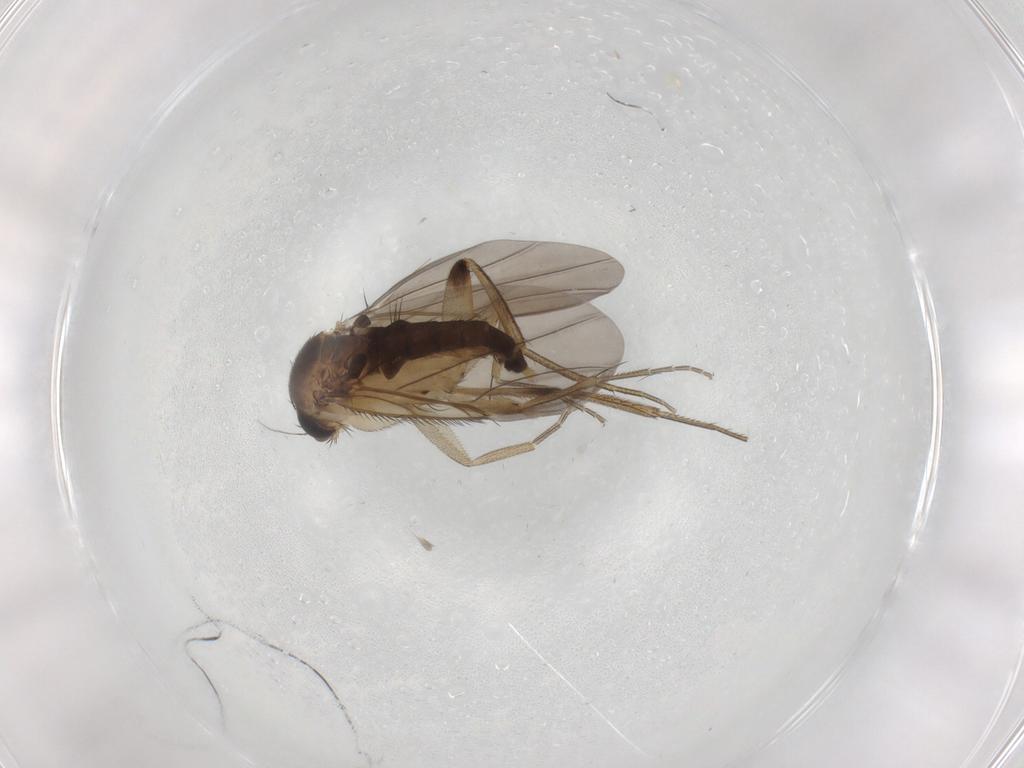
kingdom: Animalia
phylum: Arthropoda
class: Insecta
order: Diptera
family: Phoridae
